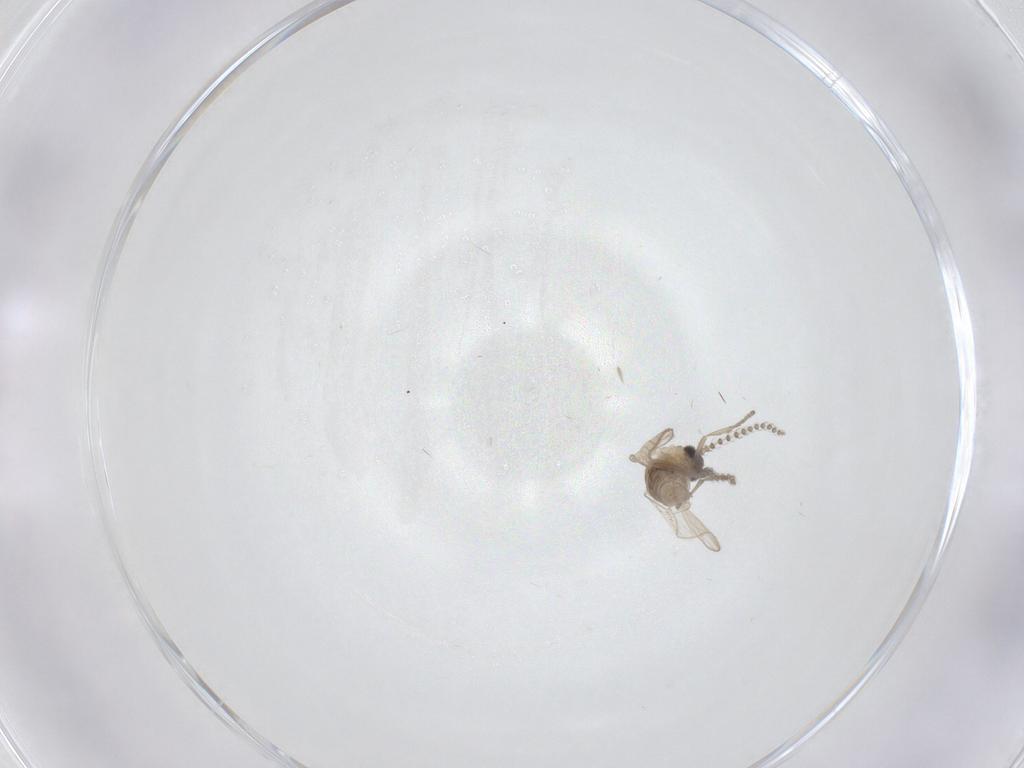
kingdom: Animalia
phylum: Arthropoda
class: Insecta
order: Diptera
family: Psychodidae
